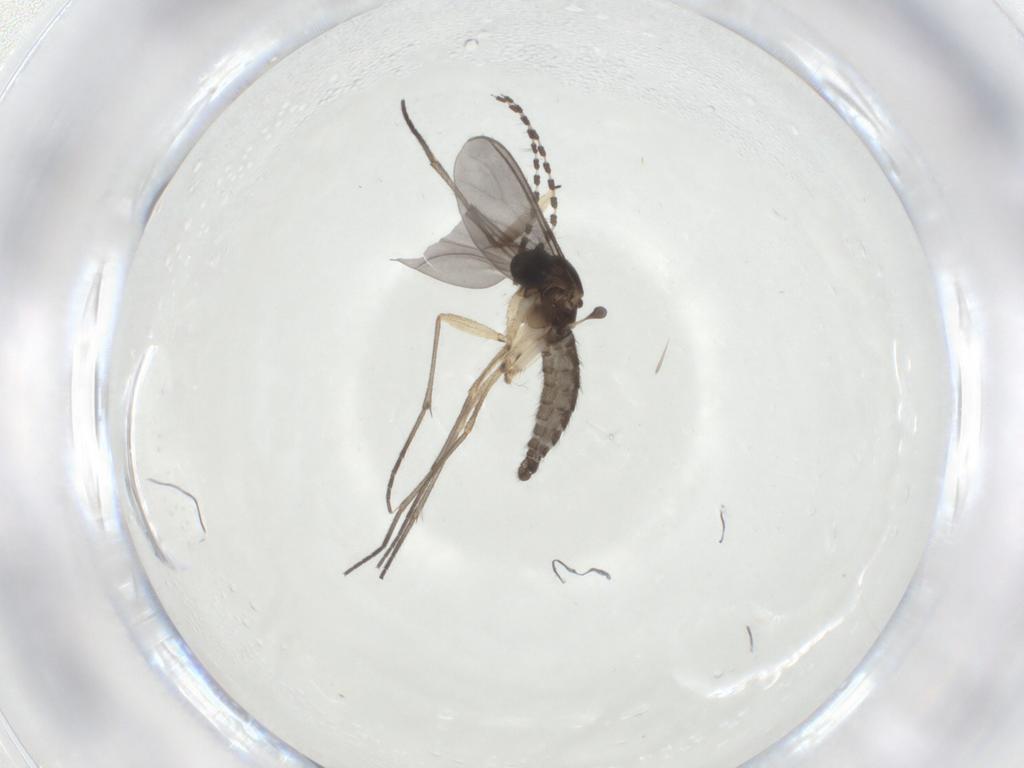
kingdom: Animalia
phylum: Arthropoda
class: Insecta
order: Diptera
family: Sciaridae
